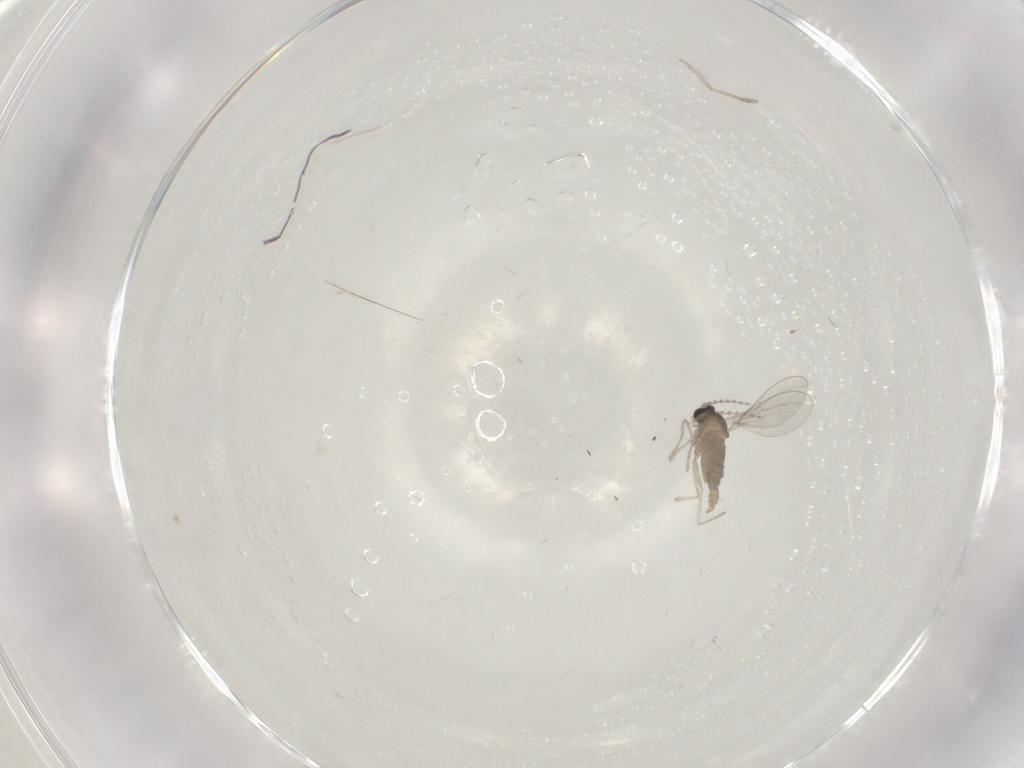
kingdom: Animalia
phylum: Arthropoda
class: Insecta
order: Diptera
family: Cecidomyiidae
